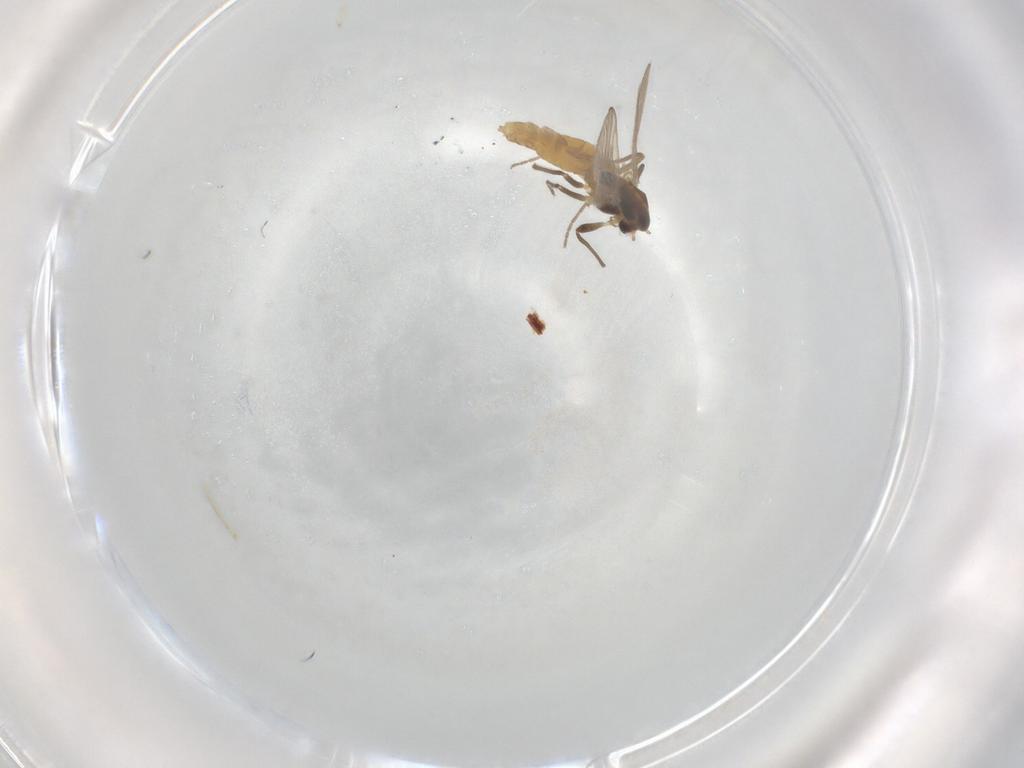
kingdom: Animalia
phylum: Arthropoda
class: Insecta
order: Diptera
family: Chironomidae
